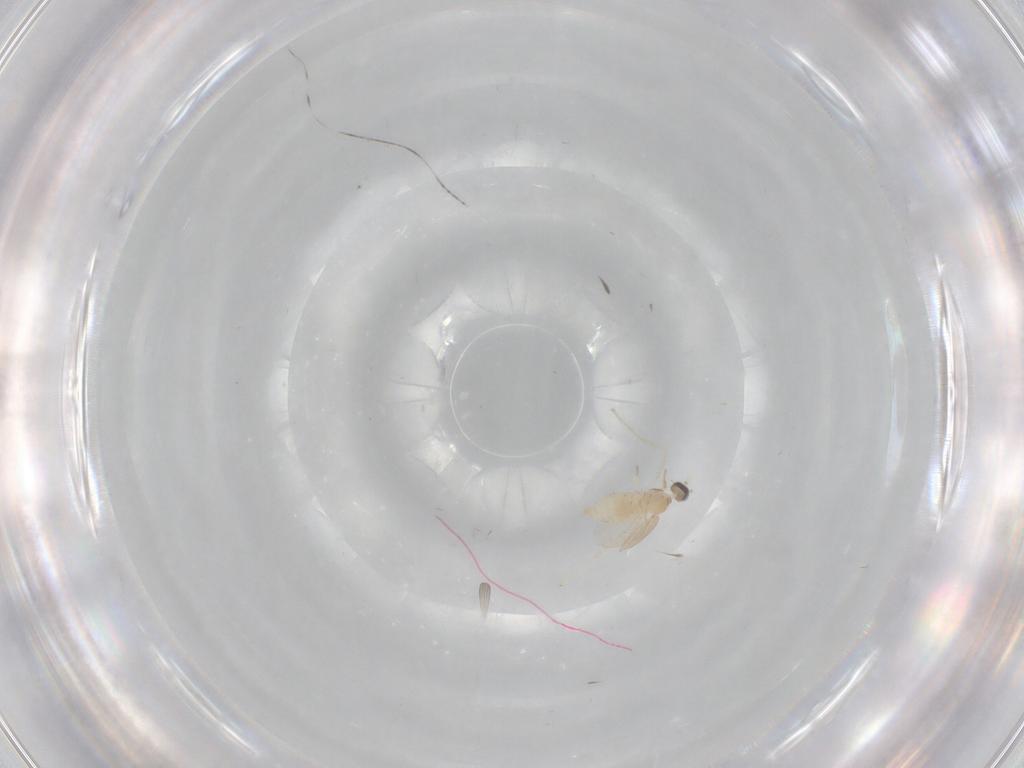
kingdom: Animalia
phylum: Arthropoda
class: Insecta
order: Diptera
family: Cecidomyiidae
